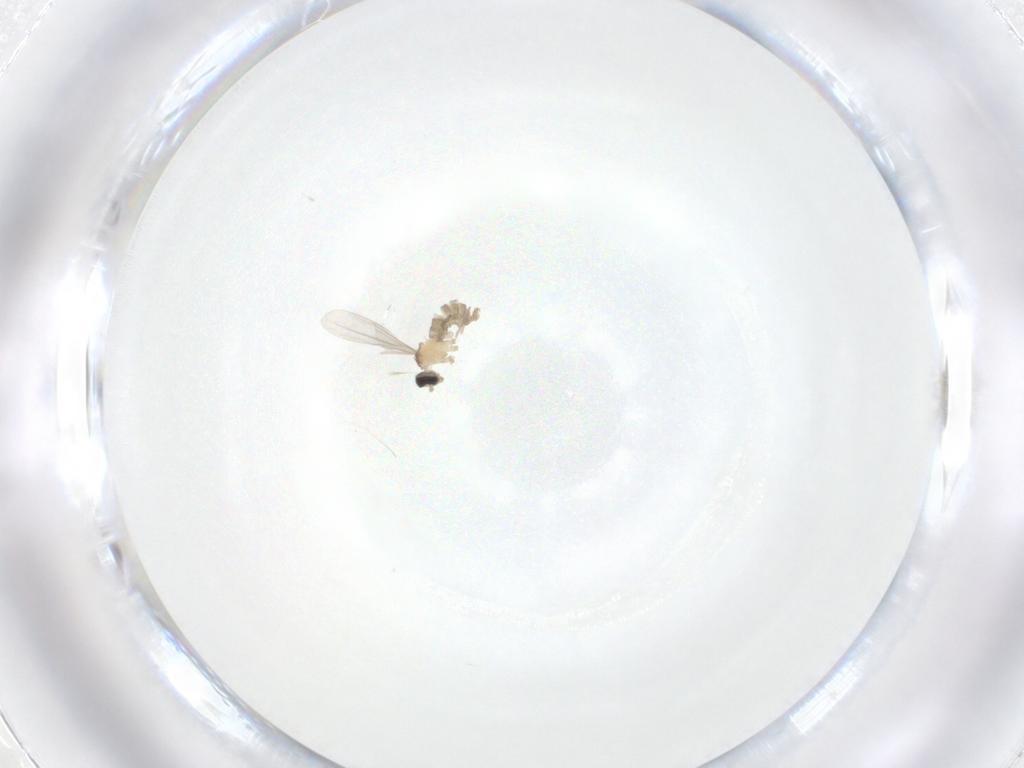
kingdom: Animalia
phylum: Arthropoda
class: Insecta
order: Diptera
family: Cecidomyiidae
